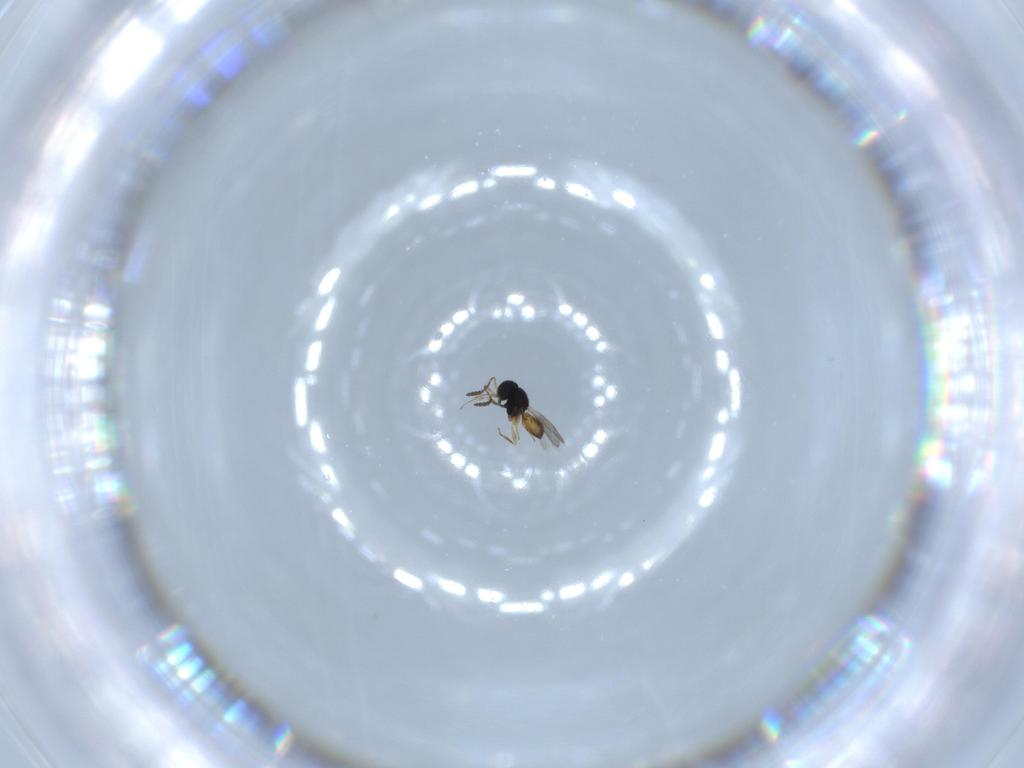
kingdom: Animalia
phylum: Arthropoda
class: Insecta
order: Hymenoptera
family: Scelionidae
